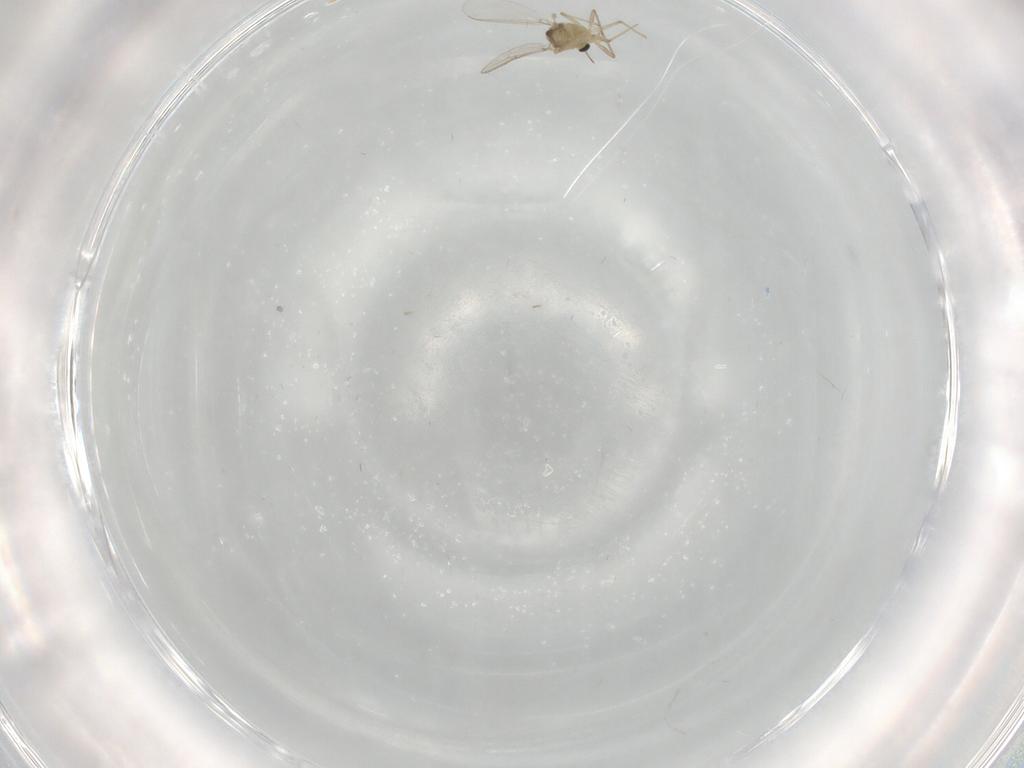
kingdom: Animalia
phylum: Arthropoda
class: Insecta
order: Diptera
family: Chironomidae
